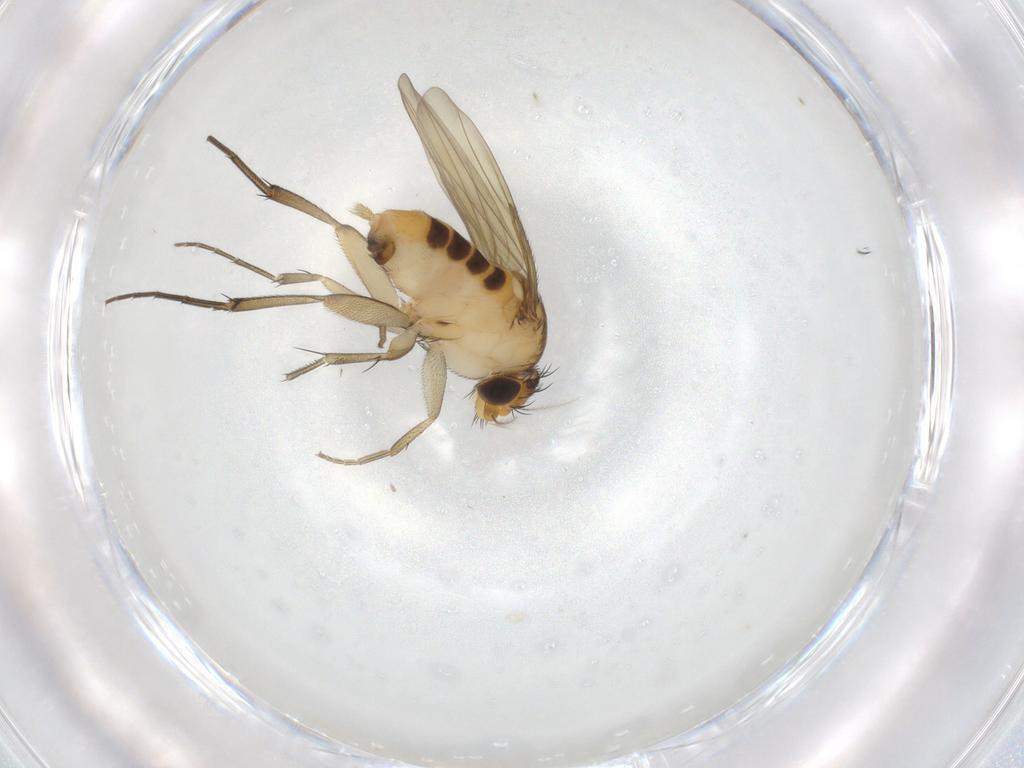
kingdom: Animalia
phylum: Arthropoda
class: Insecta
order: Diptera
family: Phoridae
